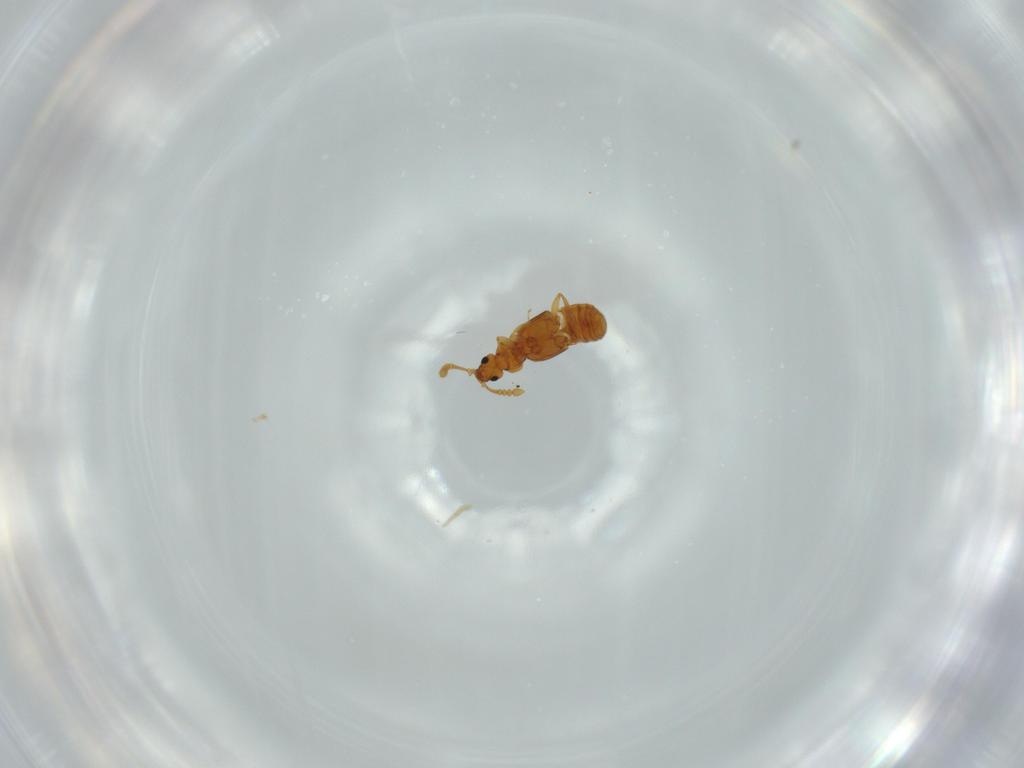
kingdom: Animalia
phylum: Arthropoda
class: Insecta
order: Coleoptera
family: Staphylinidae
